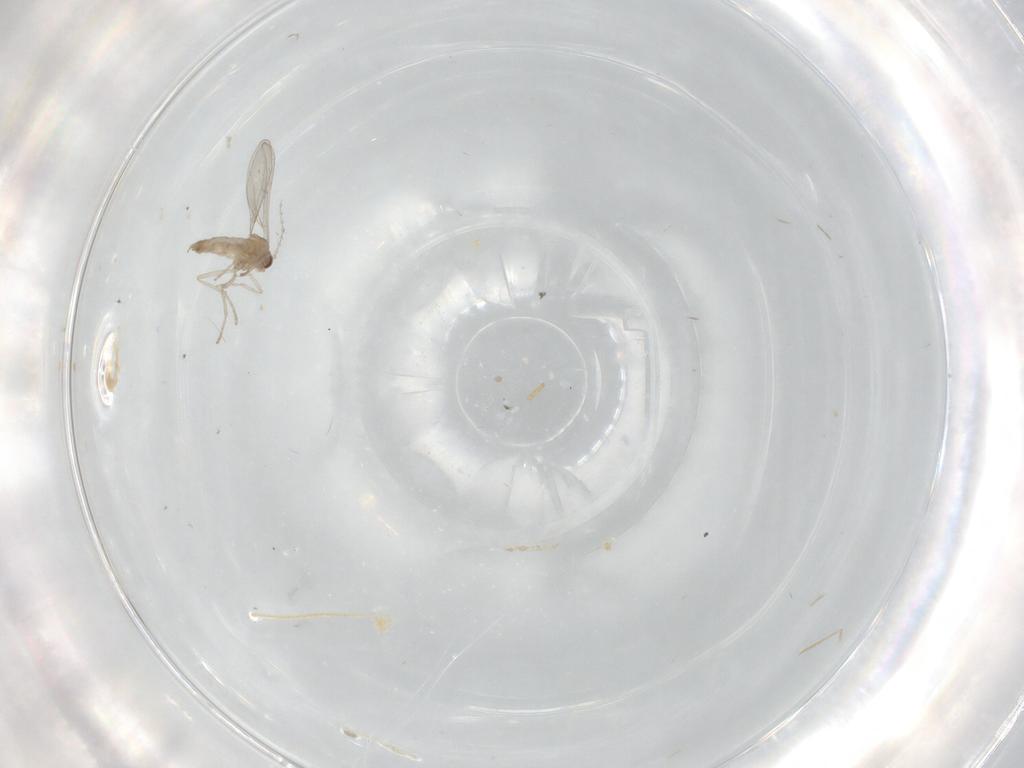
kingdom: Animalia
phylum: Arthropoda
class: Insecta
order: Diptera
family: Cecidomyiidae
